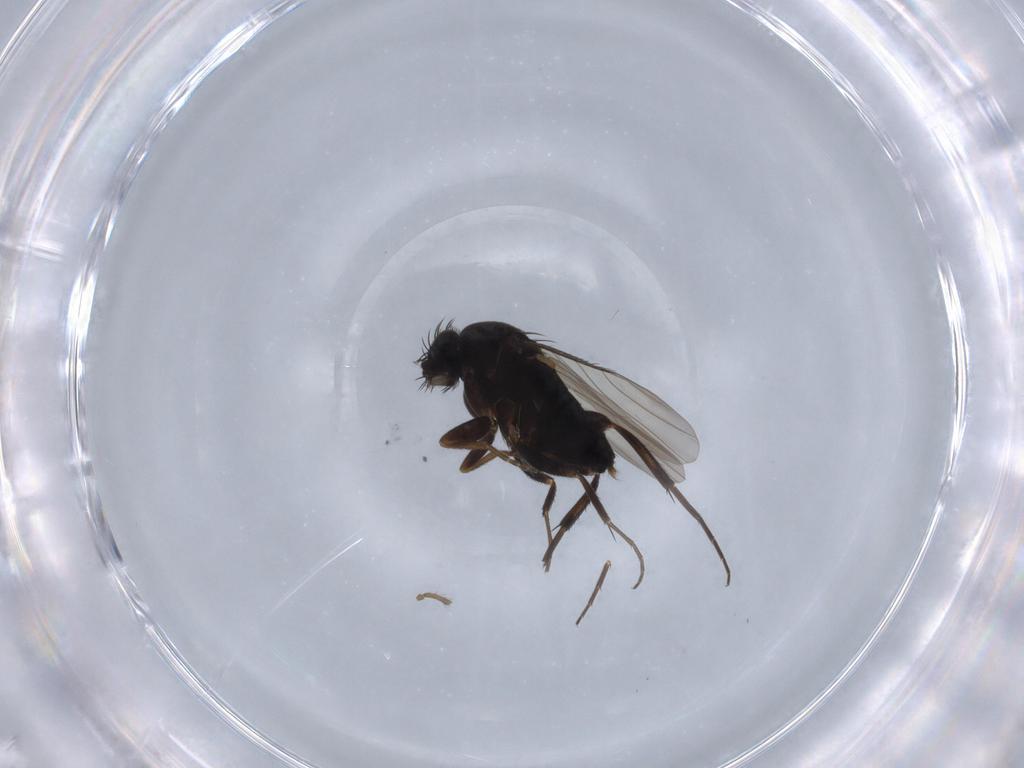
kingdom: Animalia
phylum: Arthropoda
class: Insecta
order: Diptera
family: Phoridae
